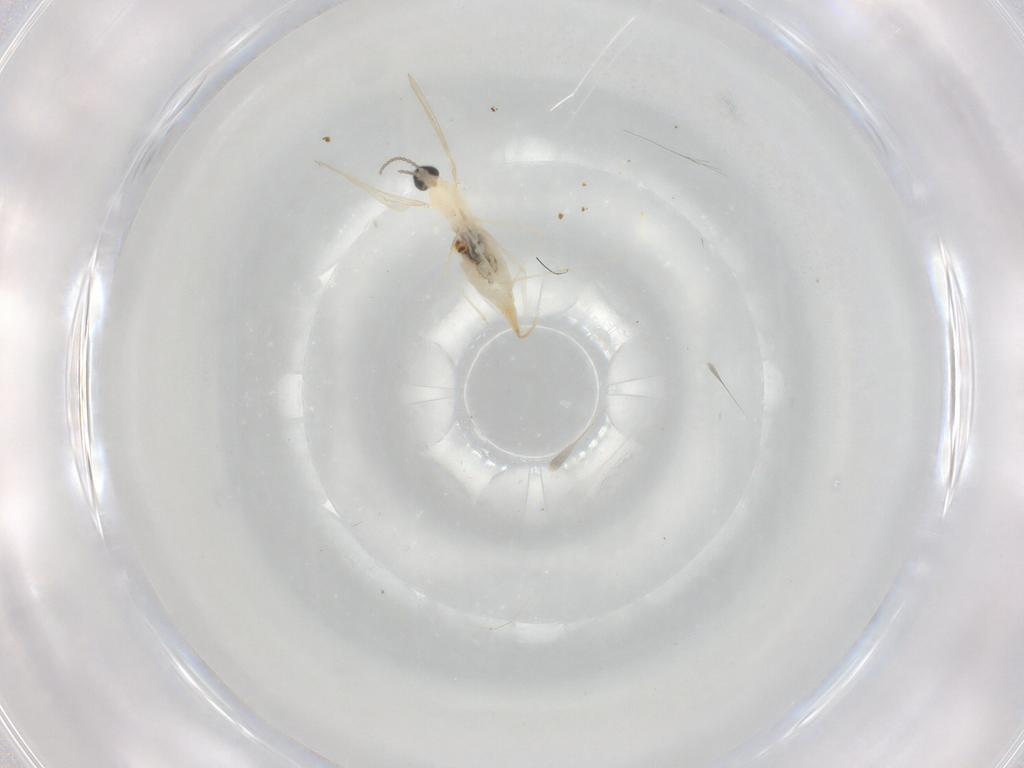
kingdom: Animalia
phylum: Arthropoda
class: Insecta
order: Diptera
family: Cecidomyiidae
